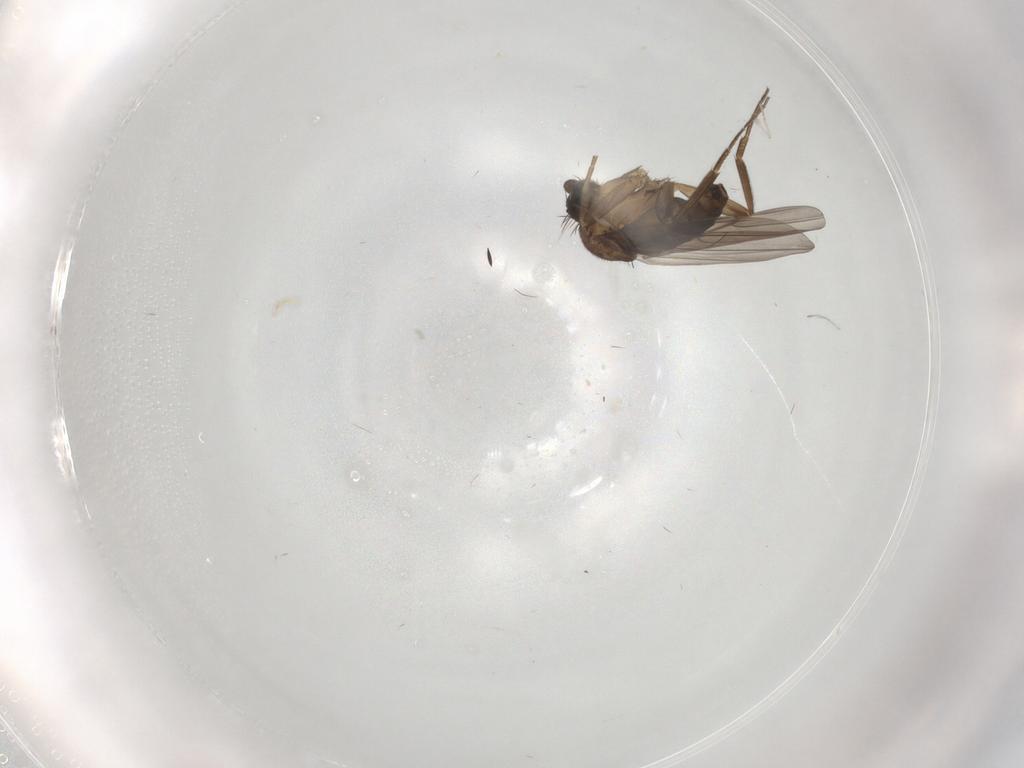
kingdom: Animalia
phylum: Arthropoda
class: Insecta
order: Diptera
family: Phoridae
